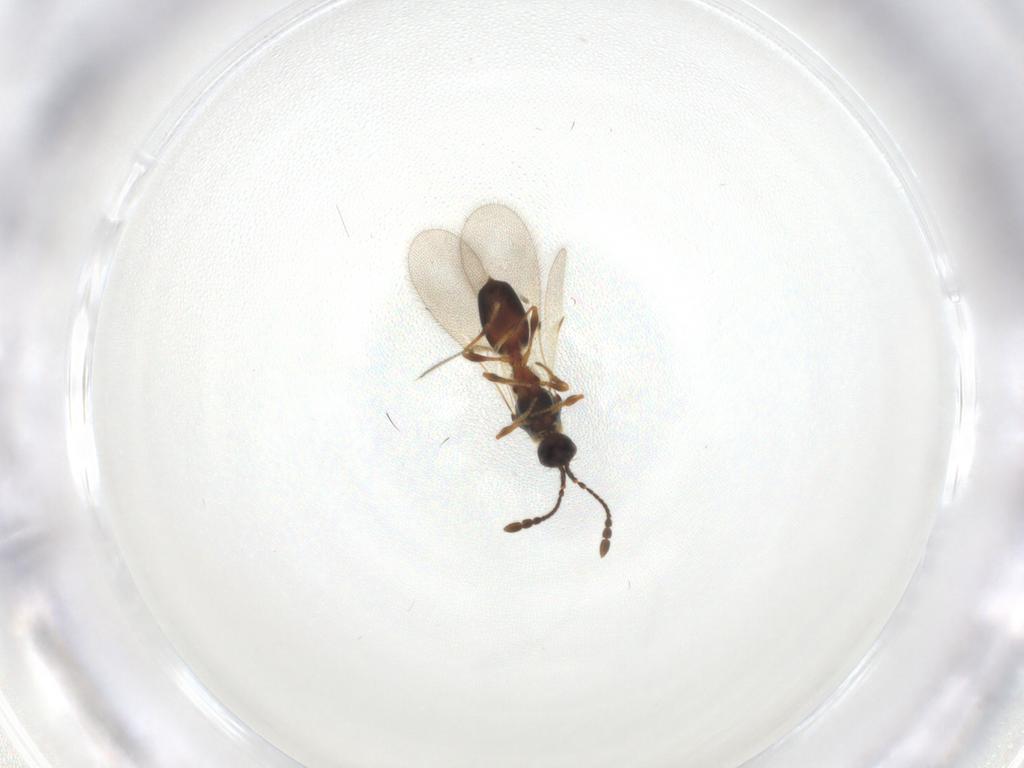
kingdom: Animalia
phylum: Arthropoda
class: Insecta
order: Hymenoptera
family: Diapriidae
